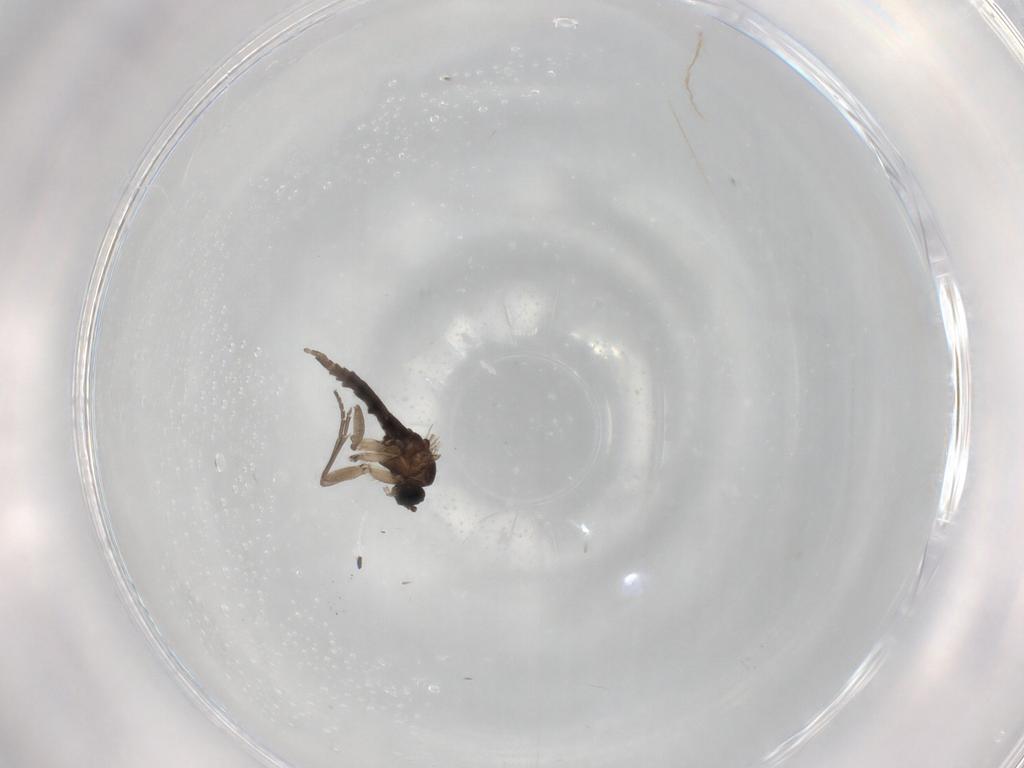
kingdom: Animalia
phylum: Arthropoda
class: Insecta
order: Diptera
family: Sciaridae
